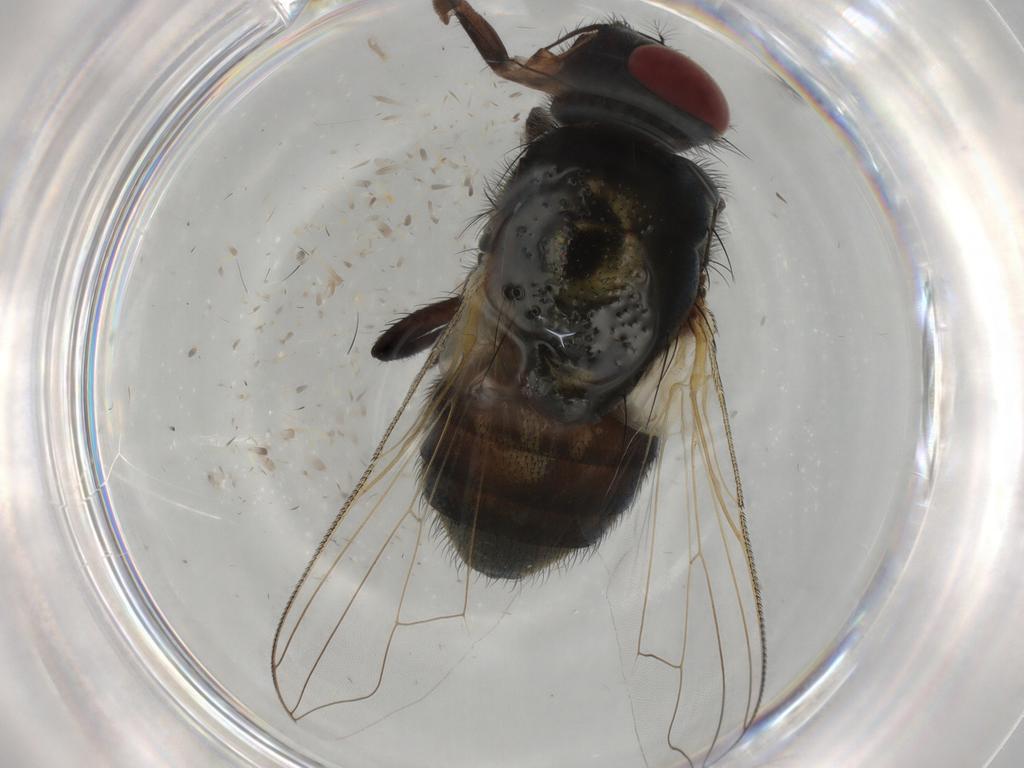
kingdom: Animalia
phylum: Arthropoda
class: Insecta
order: Diptera
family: Muscidae
